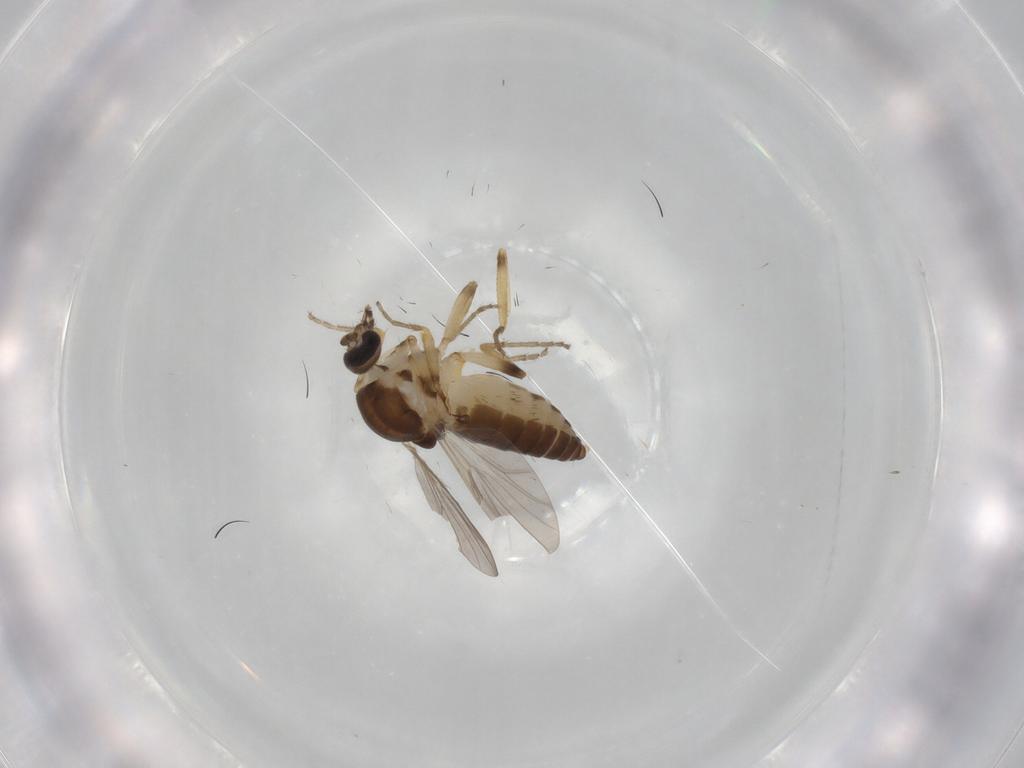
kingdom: Animalia
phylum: Arthropoda
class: Insecta
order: Diptera
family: Ceratopogonidae
